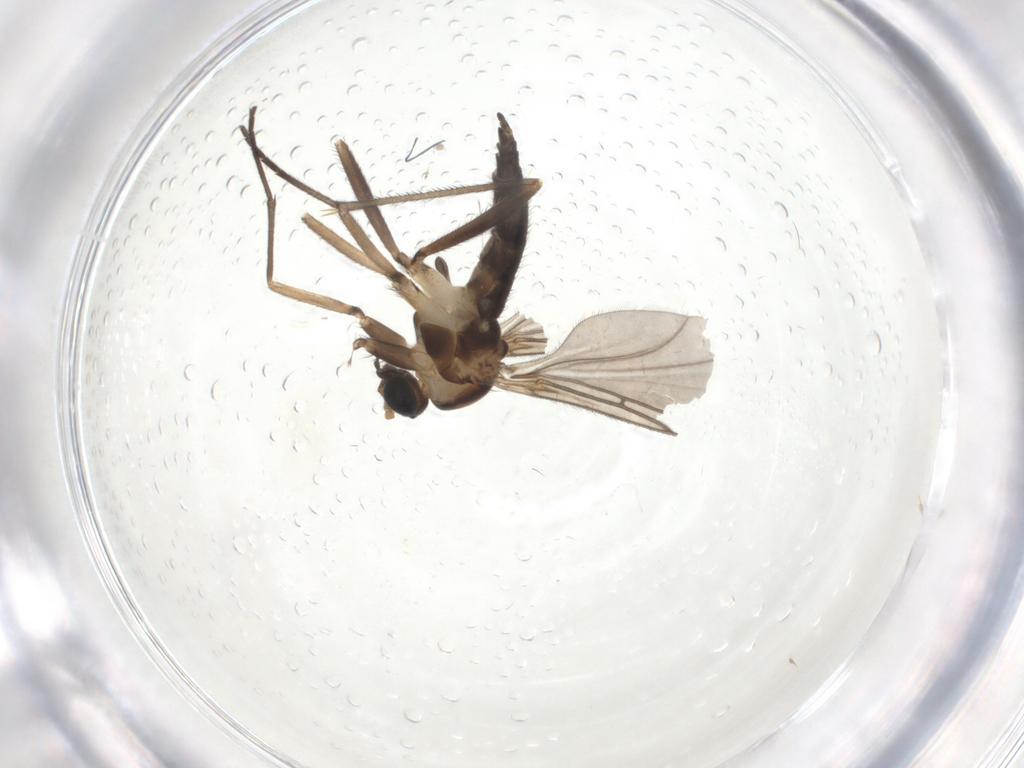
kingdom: Animalia
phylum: Arthropoda
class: Insecta
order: Diptera
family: Sciaridae
